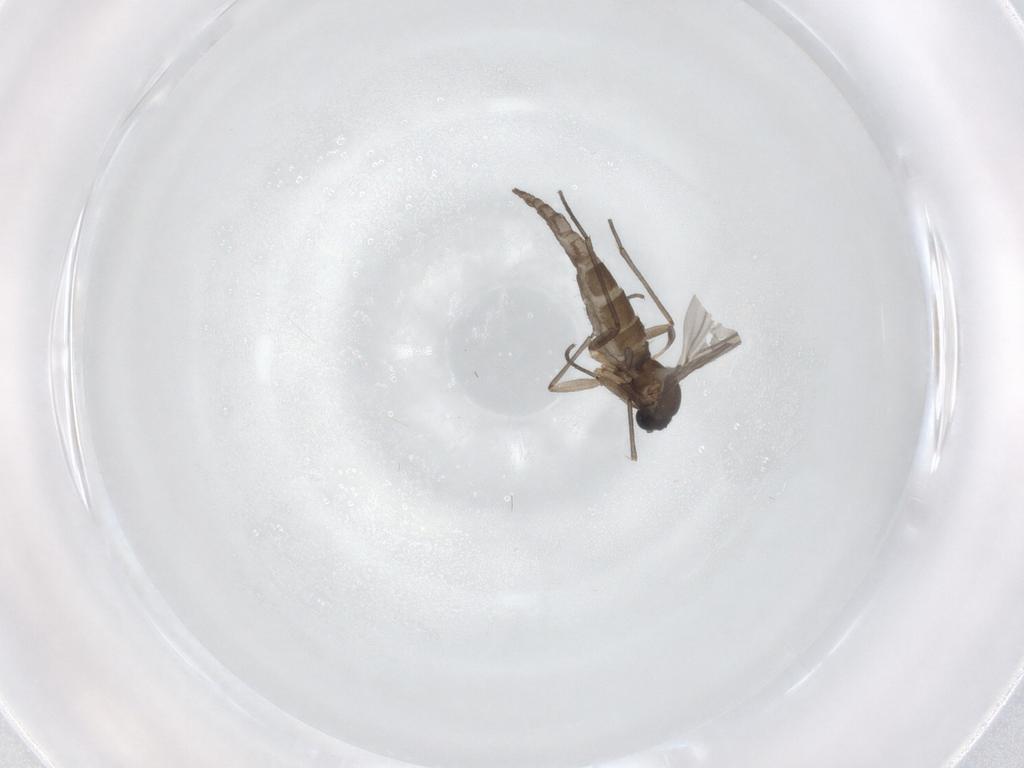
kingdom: Animalia
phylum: Arthropoda
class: Insecta
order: Diptera
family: Sciaridae
